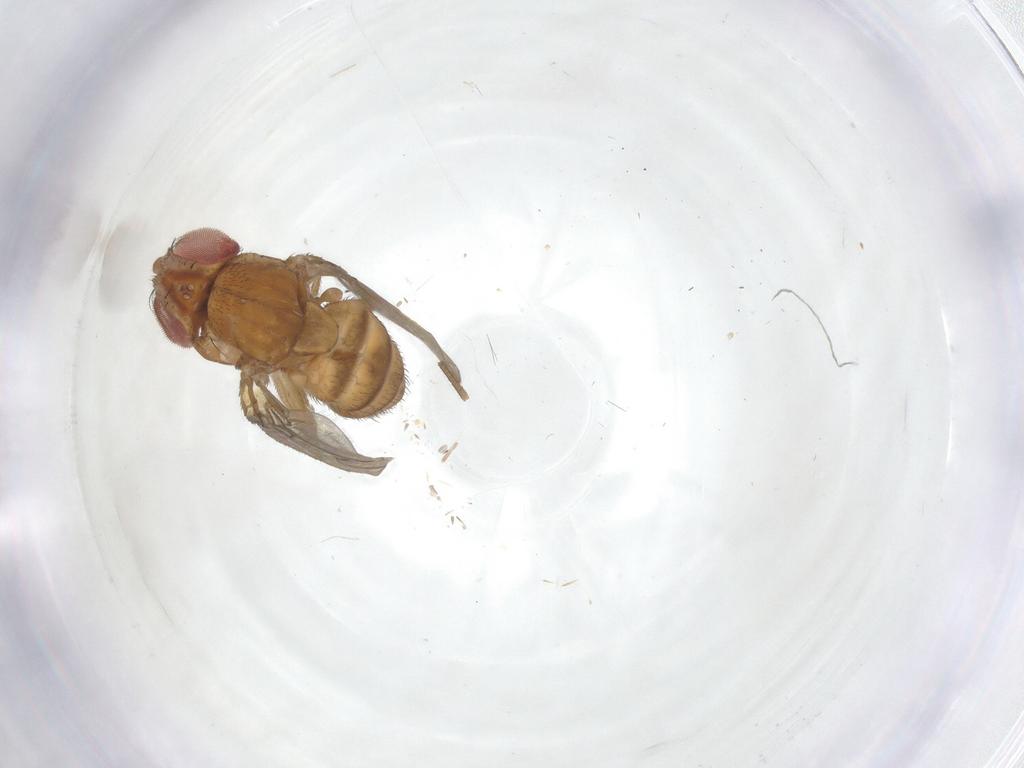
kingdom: Animalia
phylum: Arthropoda
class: Insecta
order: Diptera
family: Drosophilidae
